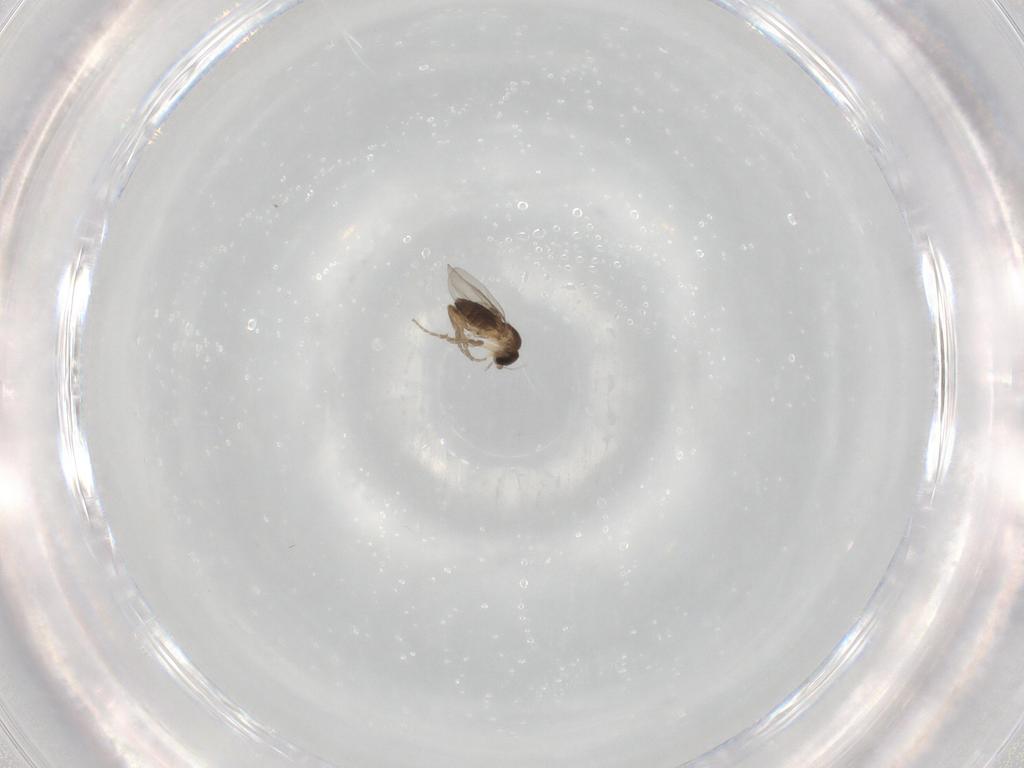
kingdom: Animalia
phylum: Arthropoda
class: Insecta
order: Diptera
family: Phoridae
